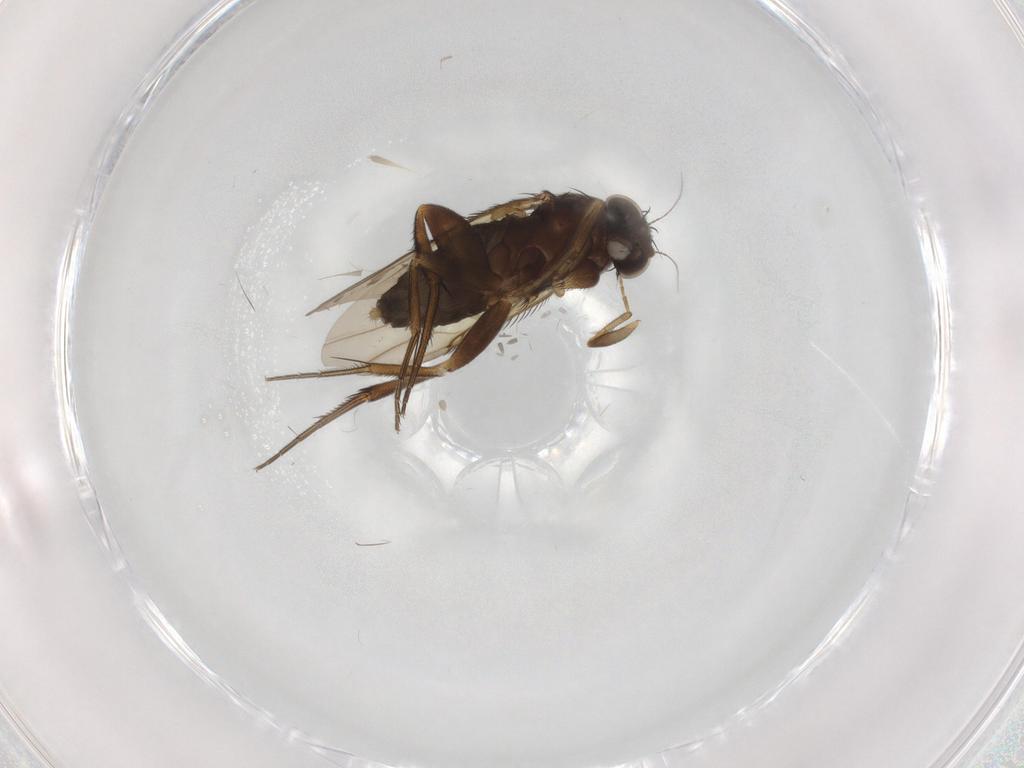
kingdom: Animalia
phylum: Arthropoda
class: Insecta
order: Diptera
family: Phoridae
